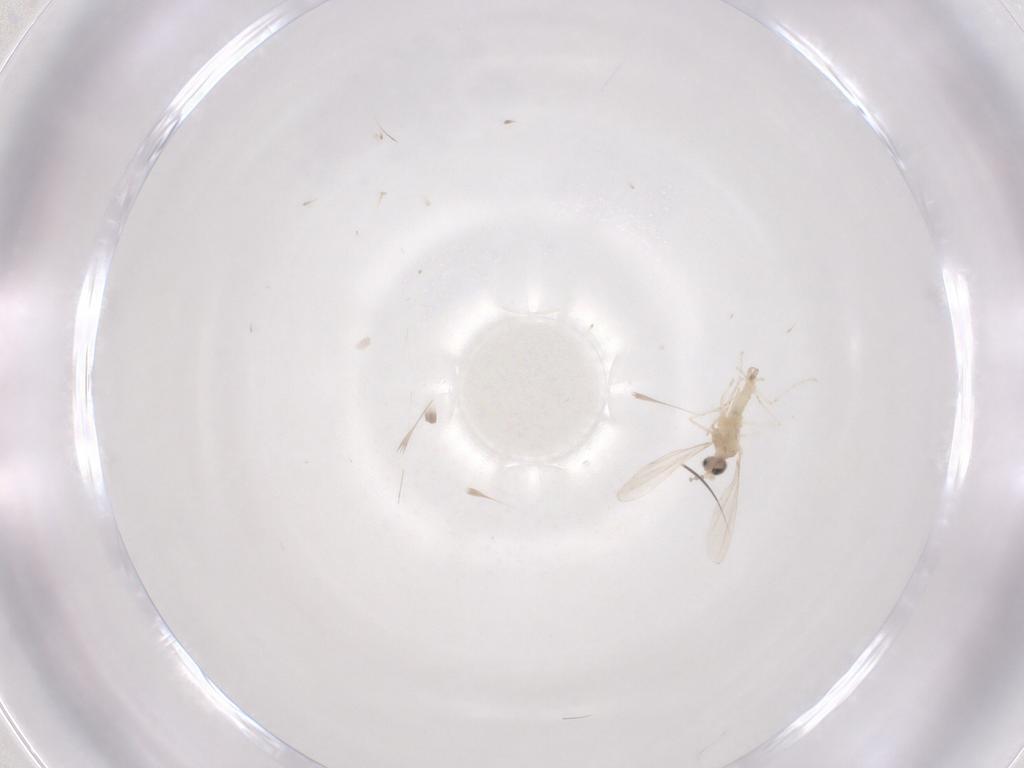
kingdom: Animalia
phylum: Arthropoda
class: Insecta
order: Diptera
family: Cecidomyiidae
